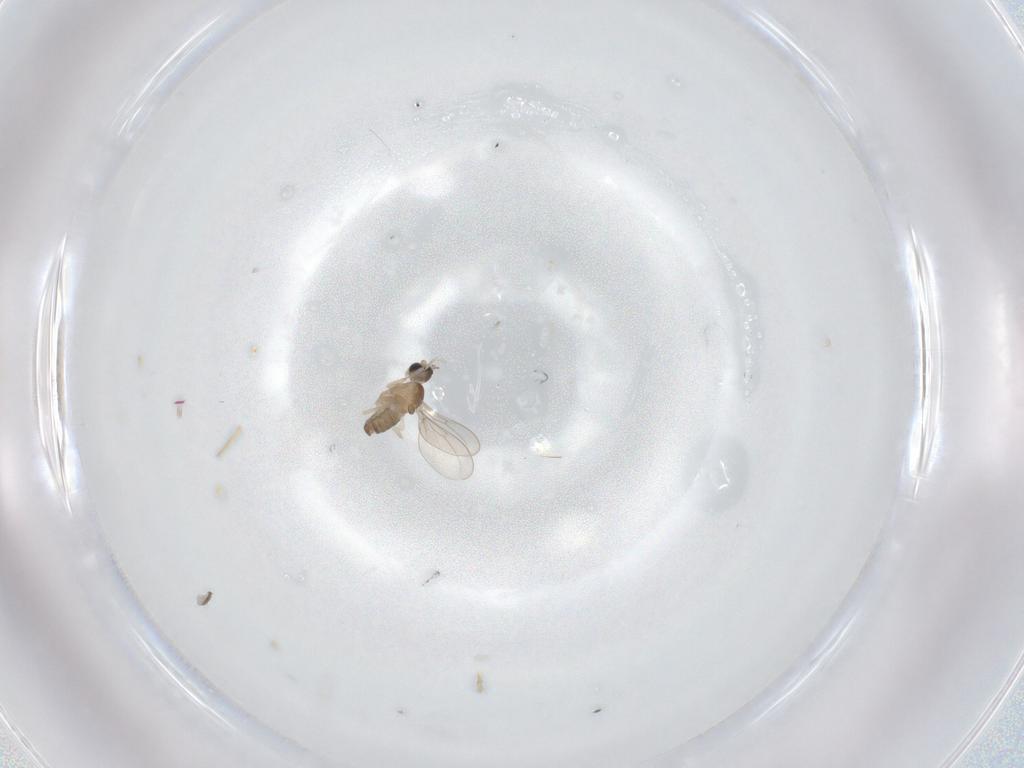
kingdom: Animalia
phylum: Arthropoda
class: Insecta
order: Diptera
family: Cecidomyiidae
